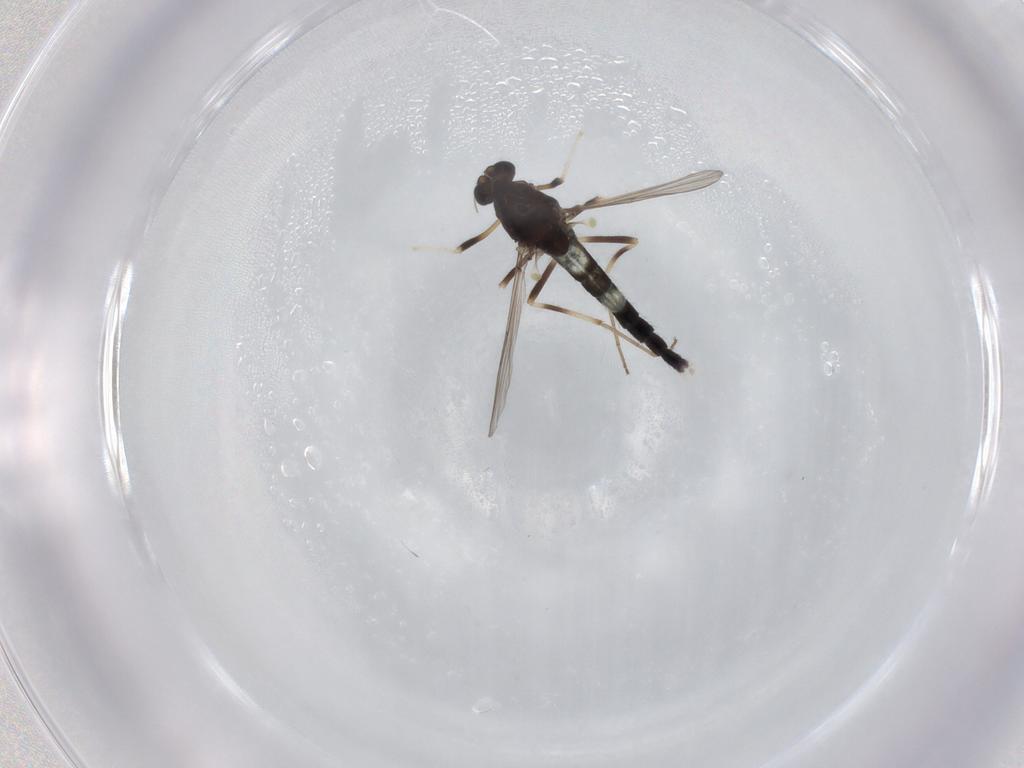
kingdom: Animalia
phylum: Arthropoda
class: Insecta
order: Diptera
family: Chironomidae
